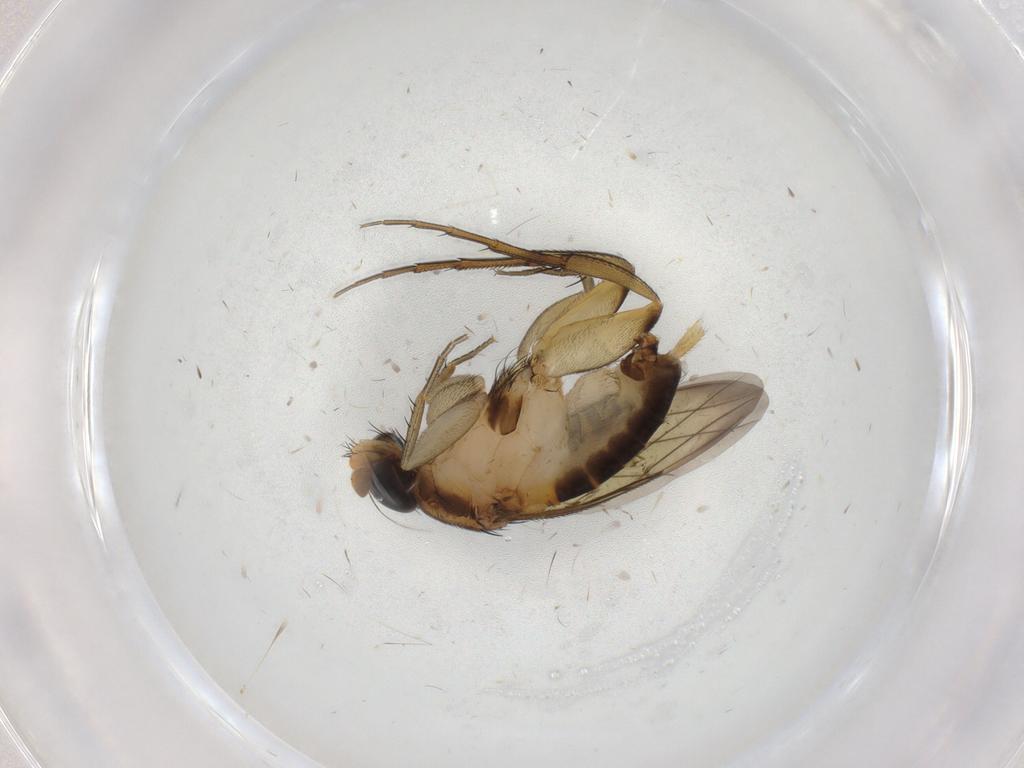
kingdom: Animalia
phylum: Arthropoda
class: Insecta
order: Diptera
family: Phoridae
